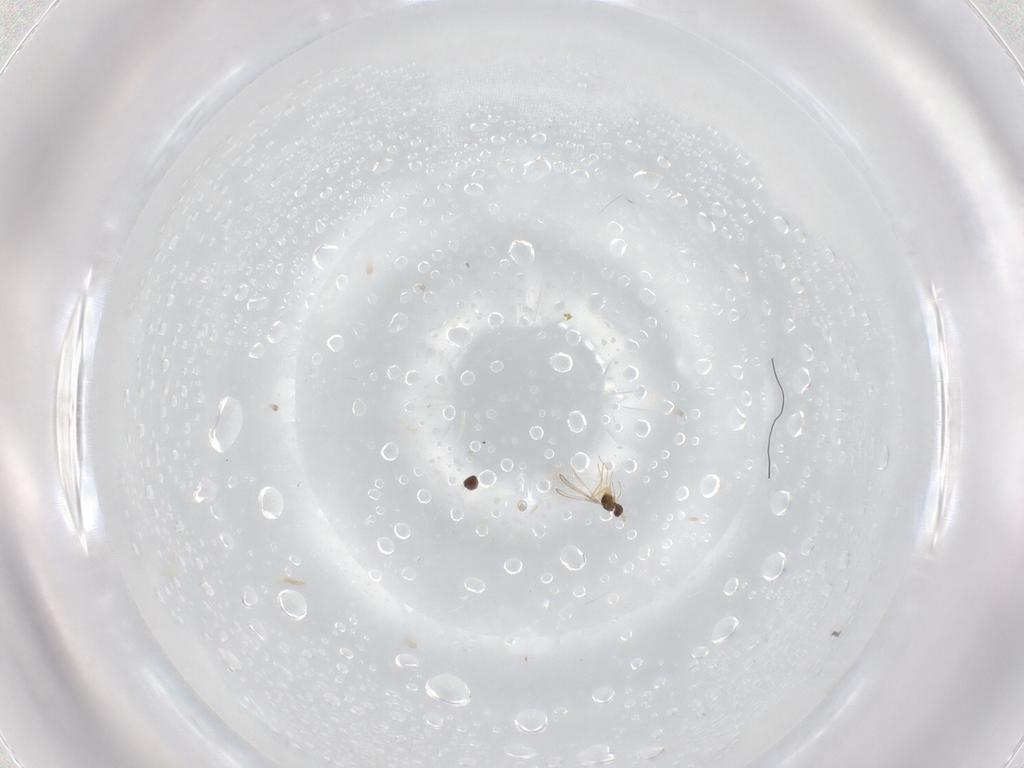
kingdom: Animalia
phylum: Arthropoda
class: Insecta
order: Hymenoptera
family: Mymaridae
